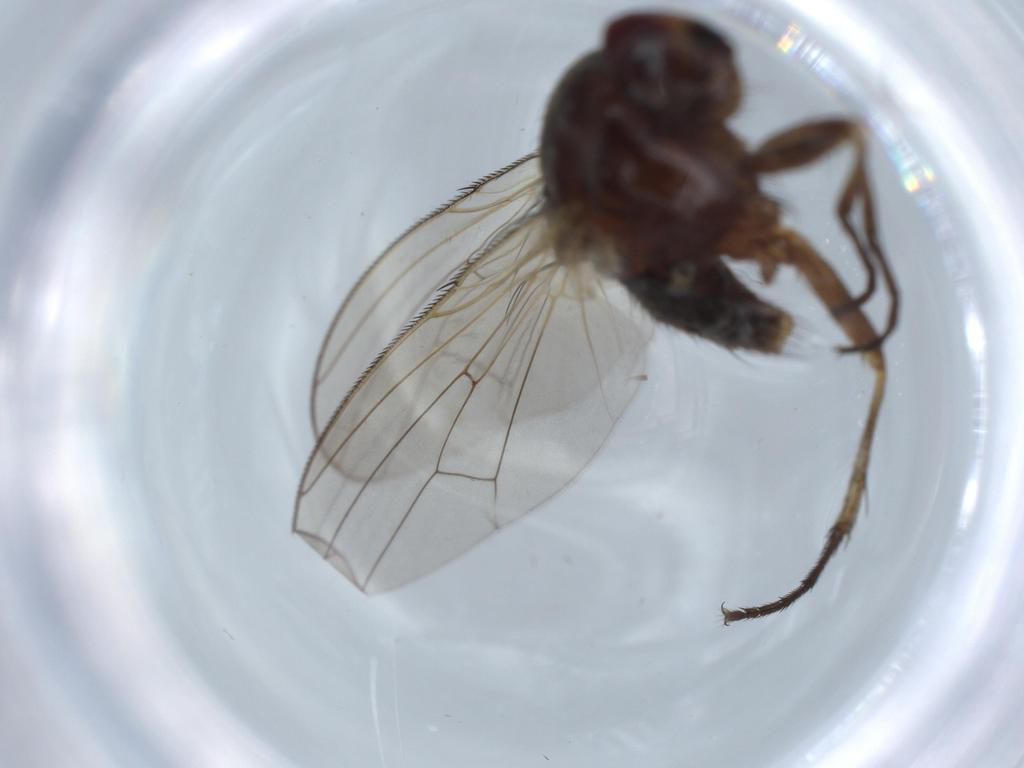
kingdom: Animalia
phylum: Arthropoda
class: Insecta
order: Diptera
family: Anthomyiidae
